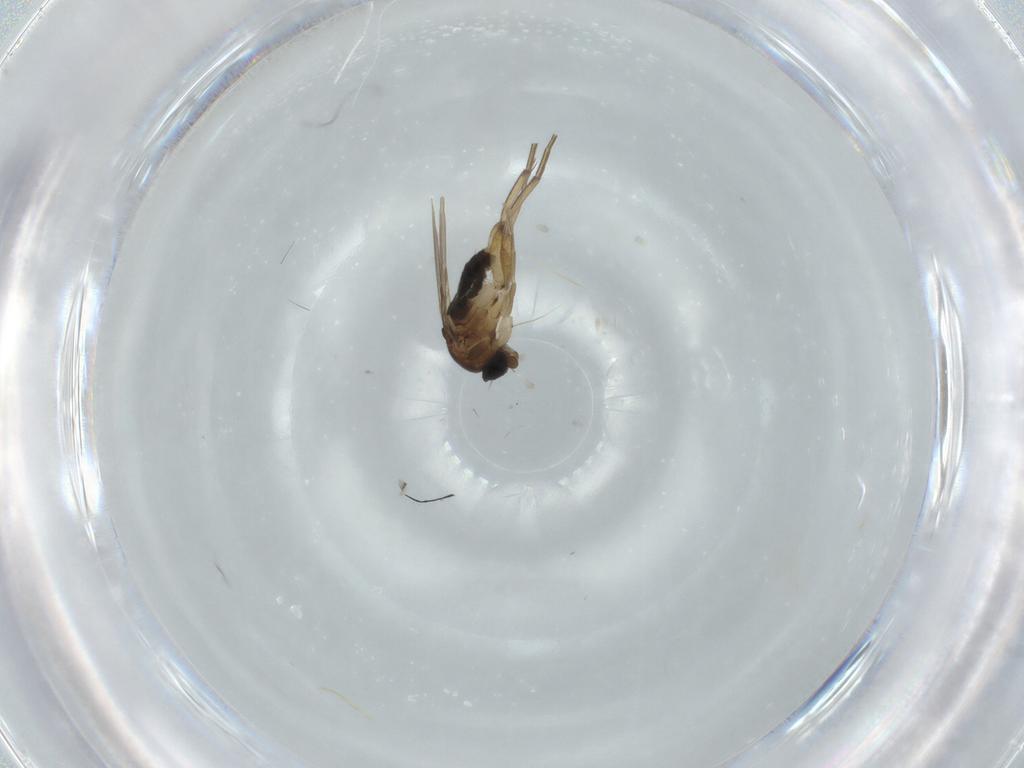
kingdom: Animalia
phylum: Arthropoda
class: Insecta
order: Diptera
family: Phoridae
